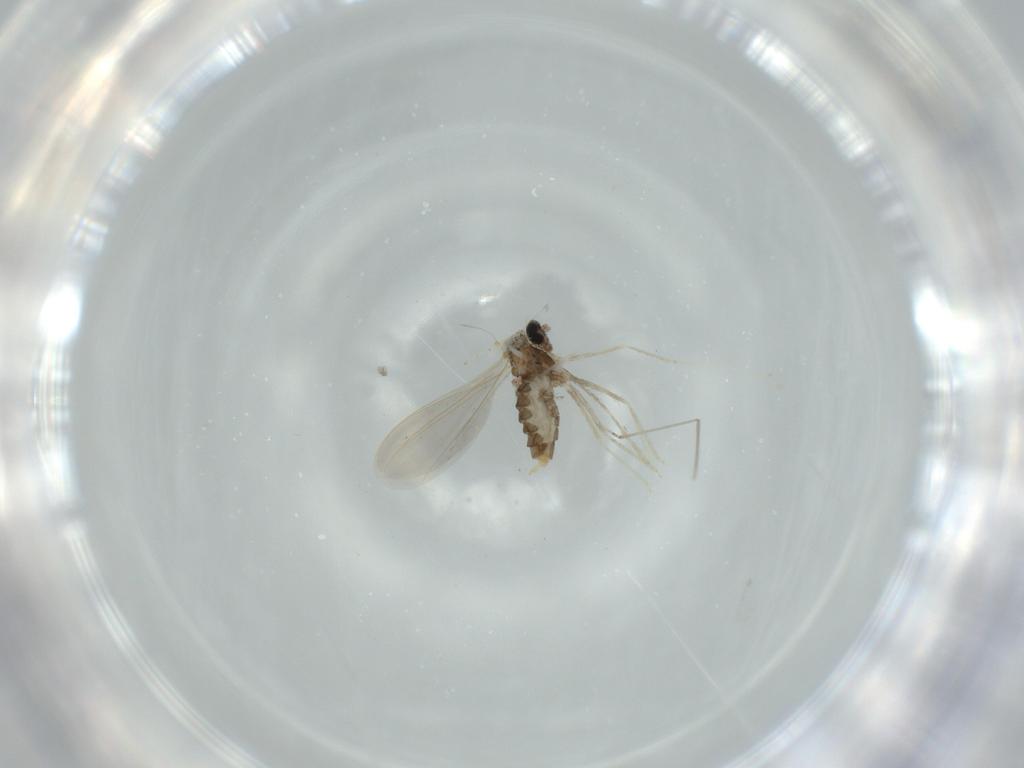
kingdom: Animalia
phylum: Arthropoda
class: Insecta
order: Diptera
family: Cecidomyiidae
